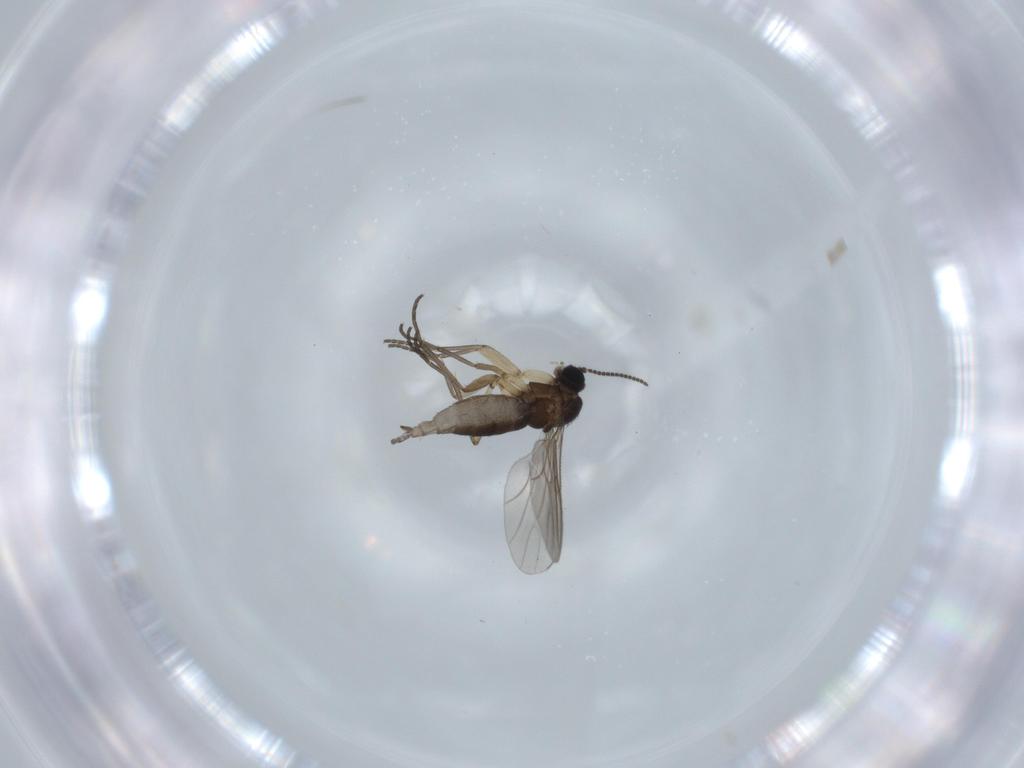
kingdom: Animalia
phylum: Arthropoda
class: Insecta
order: Diptera
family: Sciaridae
